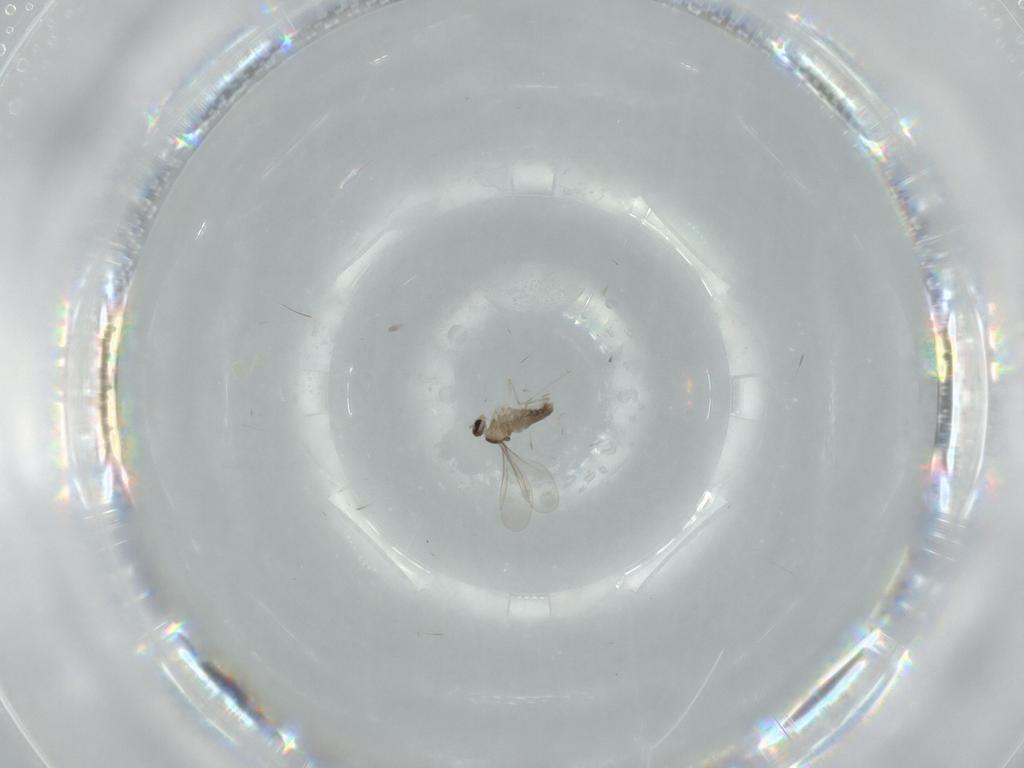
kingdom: Animalia
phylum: Arthropoda
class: Insecta
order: Diptera
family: Cecidomyiidae
